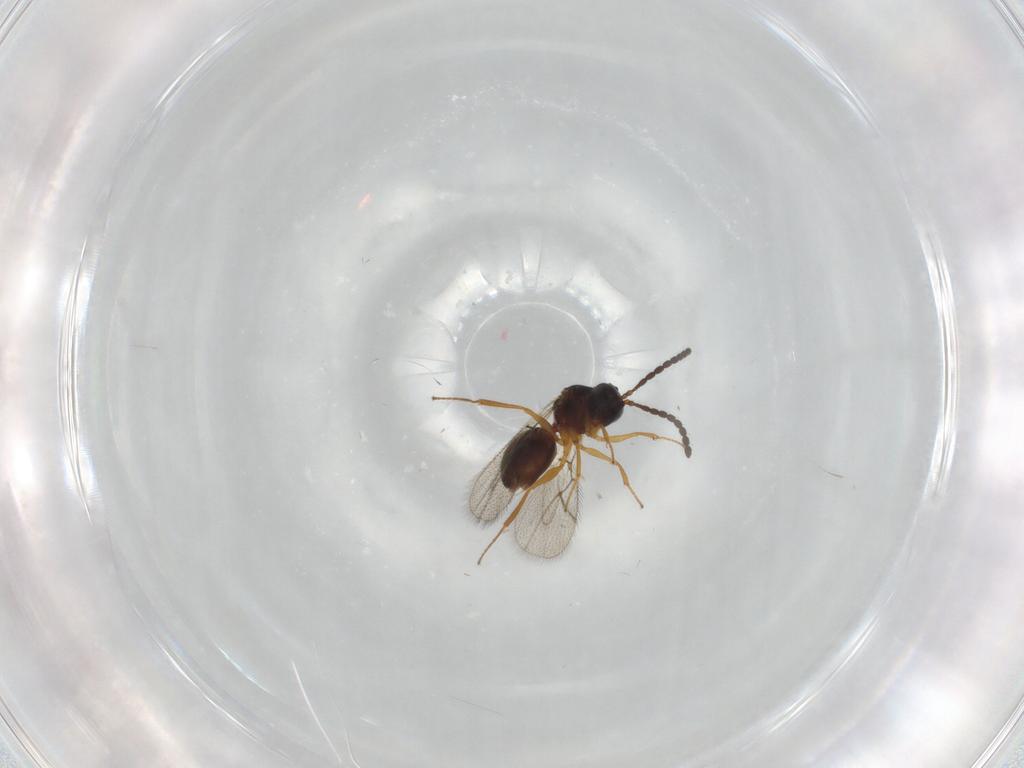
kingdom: Animalia
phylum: Arthropoda
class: Insecta
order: Hymenoptera
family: Figitidae
